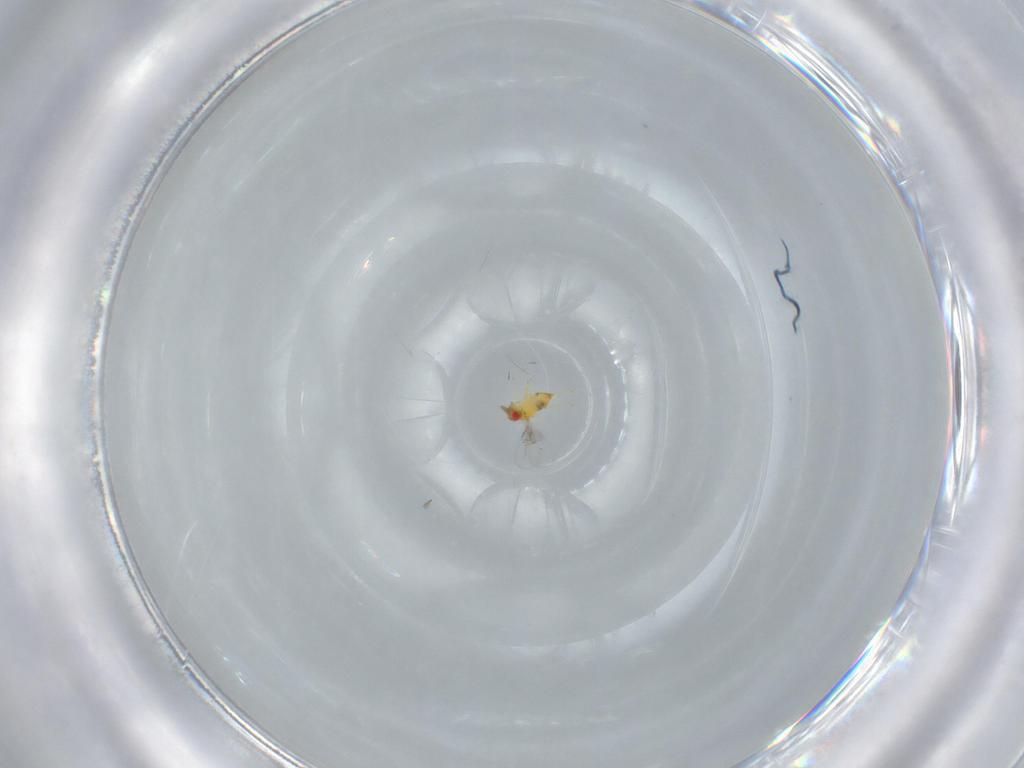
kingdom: Animalia
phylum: Arthropoda
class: Insecta
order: Hymenoptera
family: Trichogrammatidae
